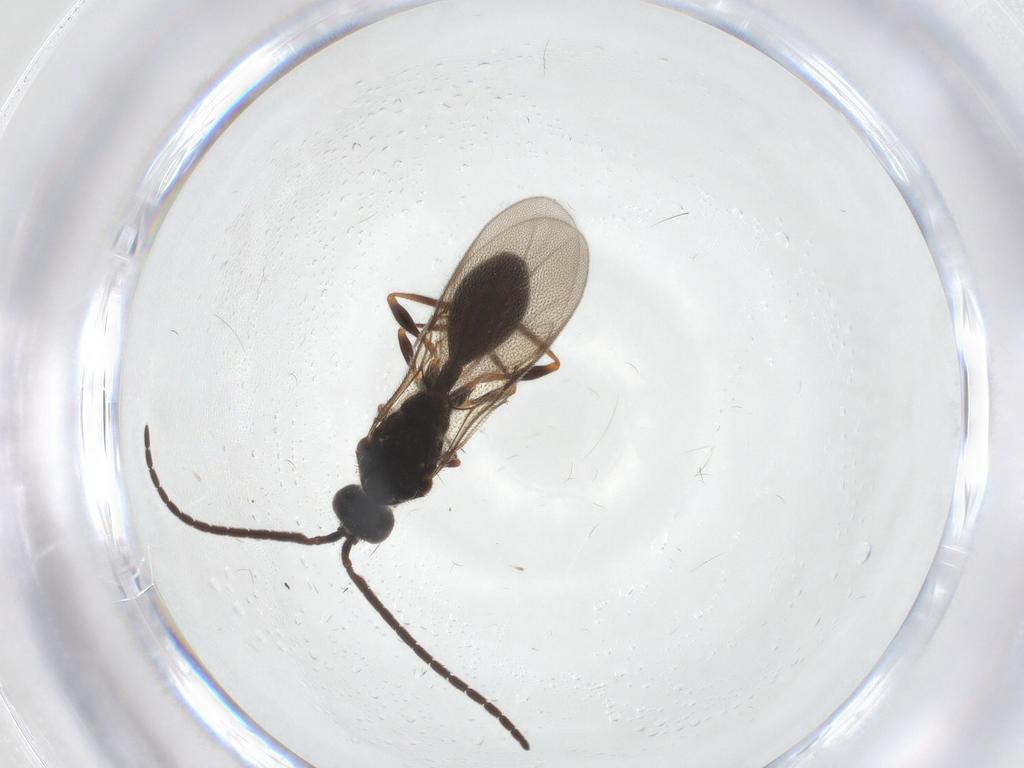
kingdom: Animalia
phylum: Arthropoda
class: Insecta
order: Hymenoptera
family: Diapriidae
